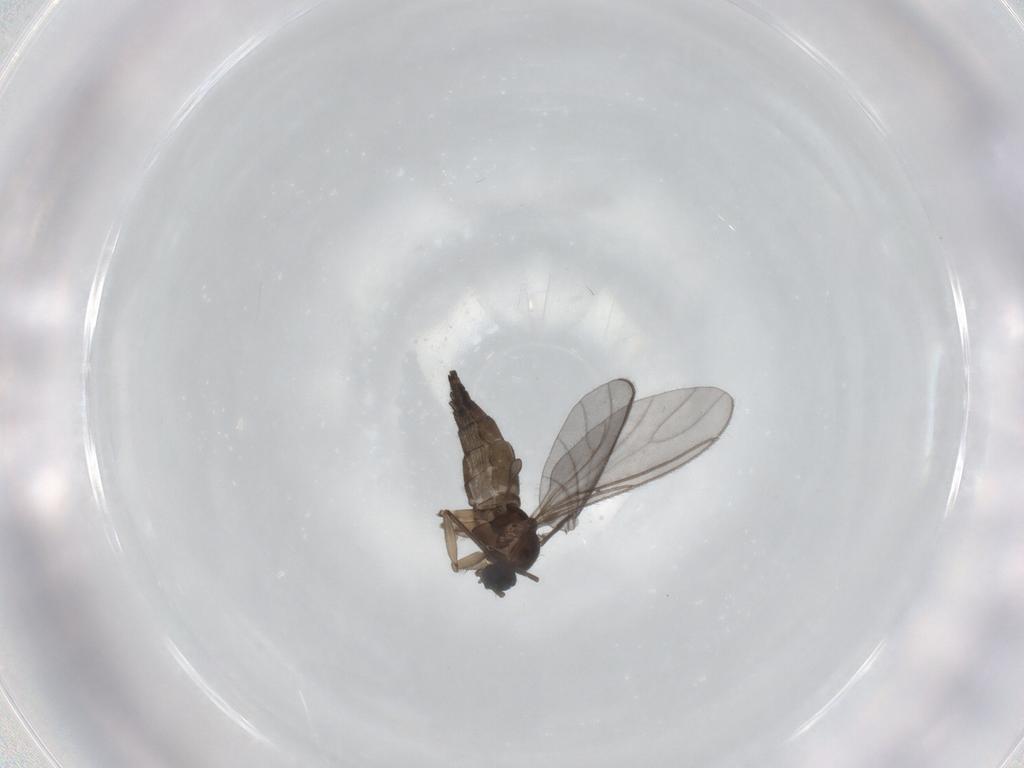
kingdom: Animalia
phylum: Arthropoda
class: Insecta
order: Diptera
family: Sciaridae
